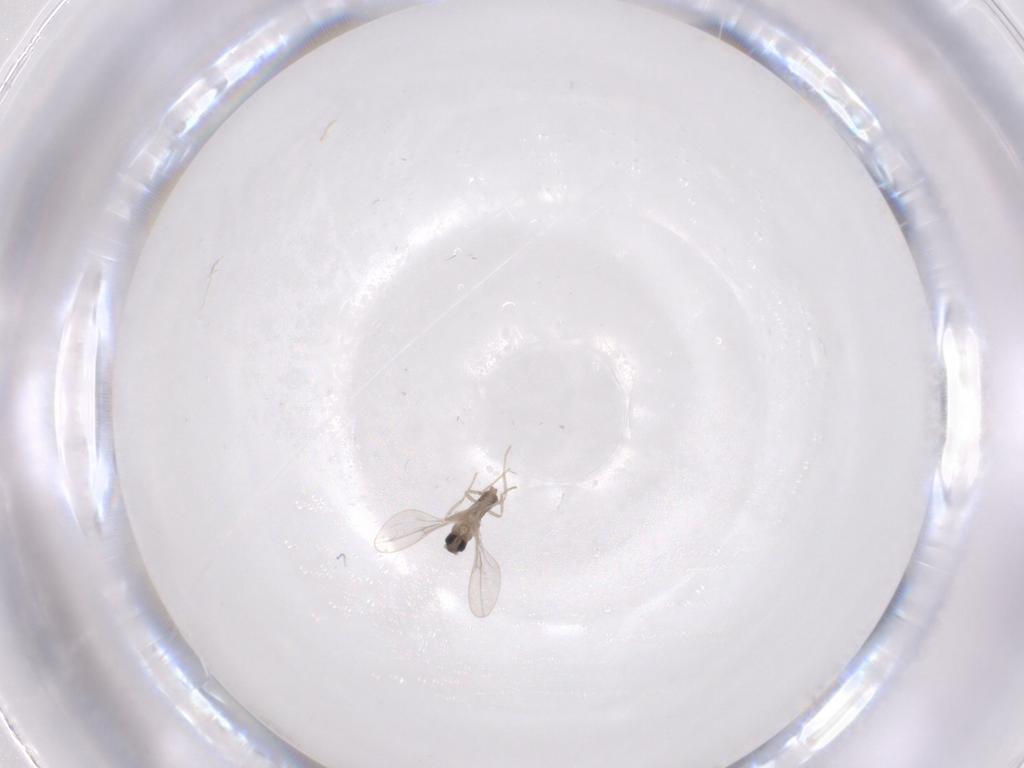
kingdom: Animalia
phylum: Arthropoda
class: Insecta
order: Diptera
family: Cecidomyiidae
